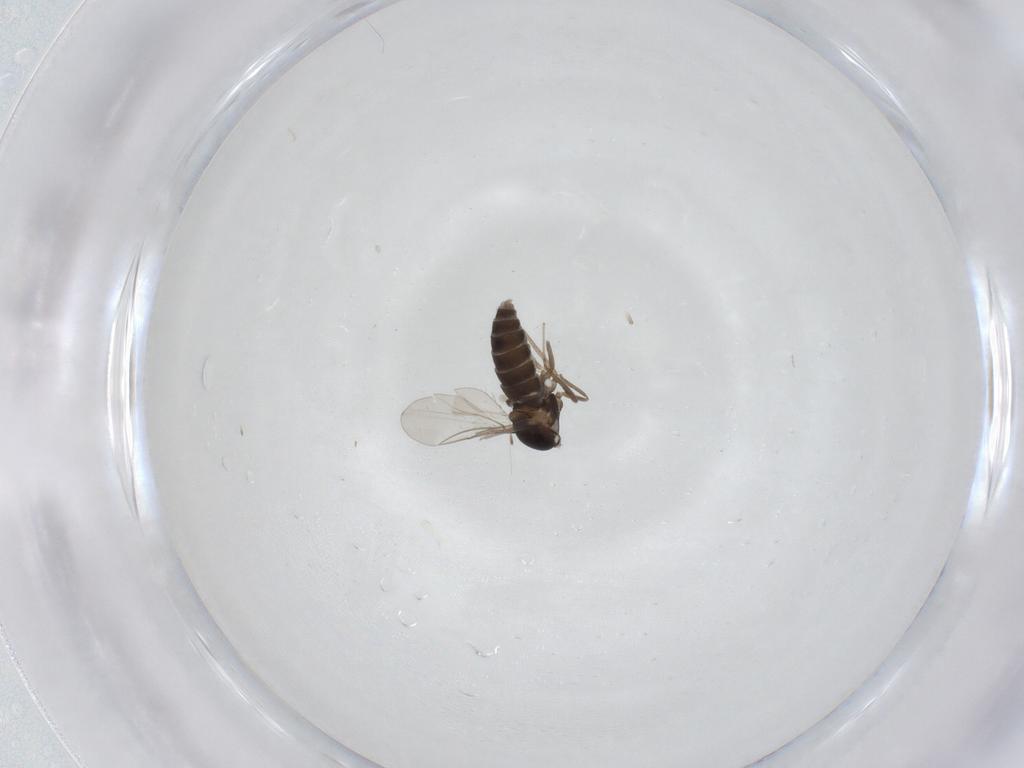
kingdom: Animalia
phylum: Arthropoda
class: Insecta
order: Diptera
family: Cecidomyiidae
